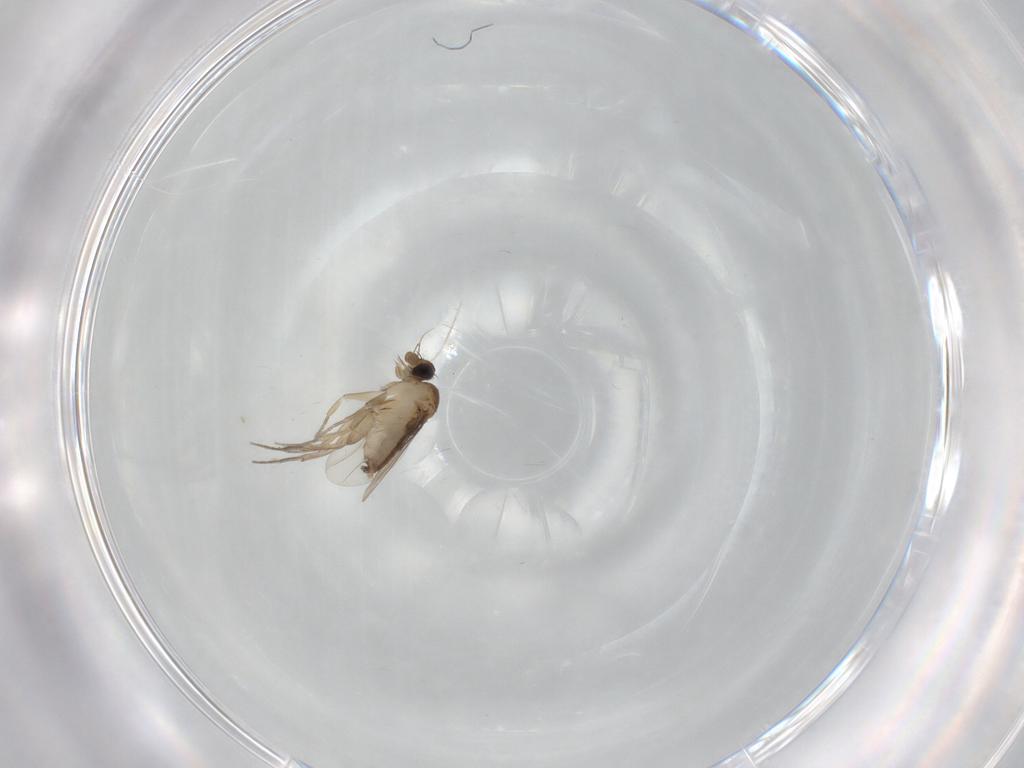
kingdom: Animalia
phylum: Arthropoda
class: Insecta
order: Diptera
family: Phoridae
